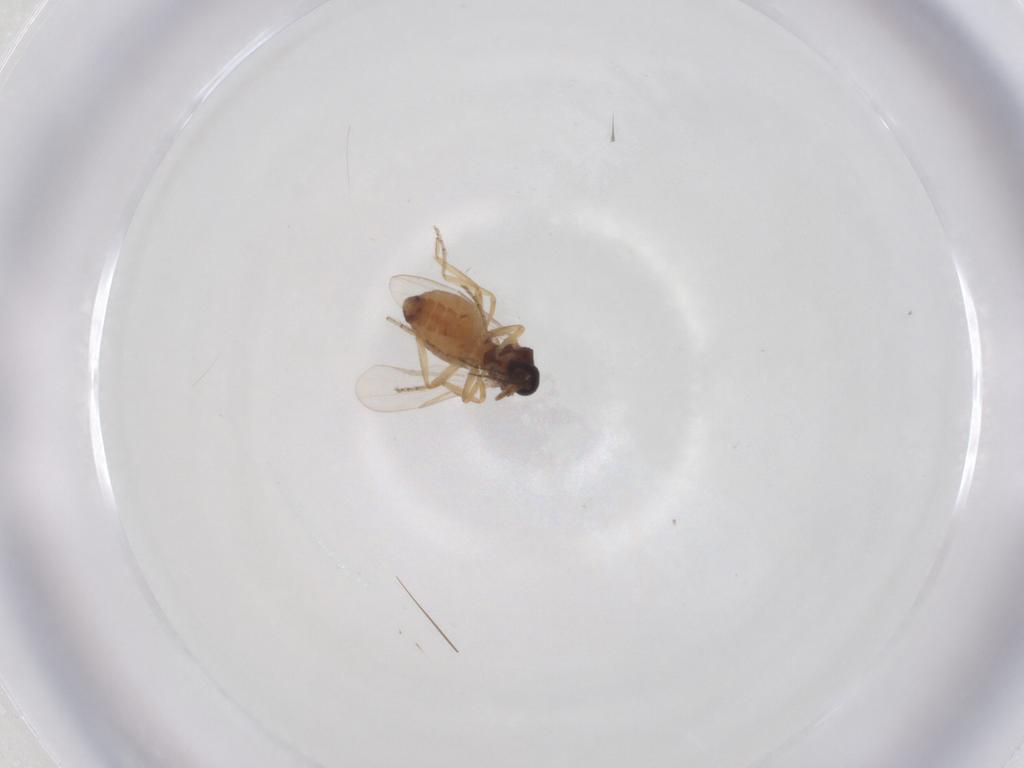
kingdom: Animalia
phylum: Arthropoda
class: Insecta
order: Diptera
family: Ceratopogonidae
